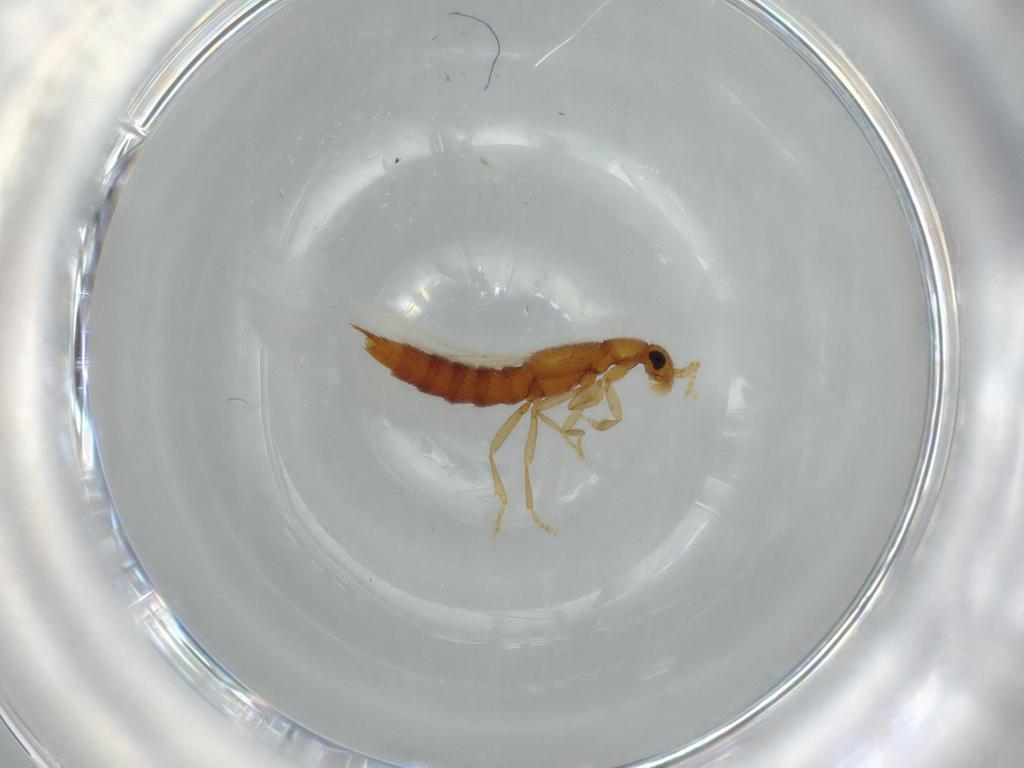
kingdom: Animalia
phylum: Arthropoda
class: Insecta
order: Coleoptera
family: Staphylinidae
